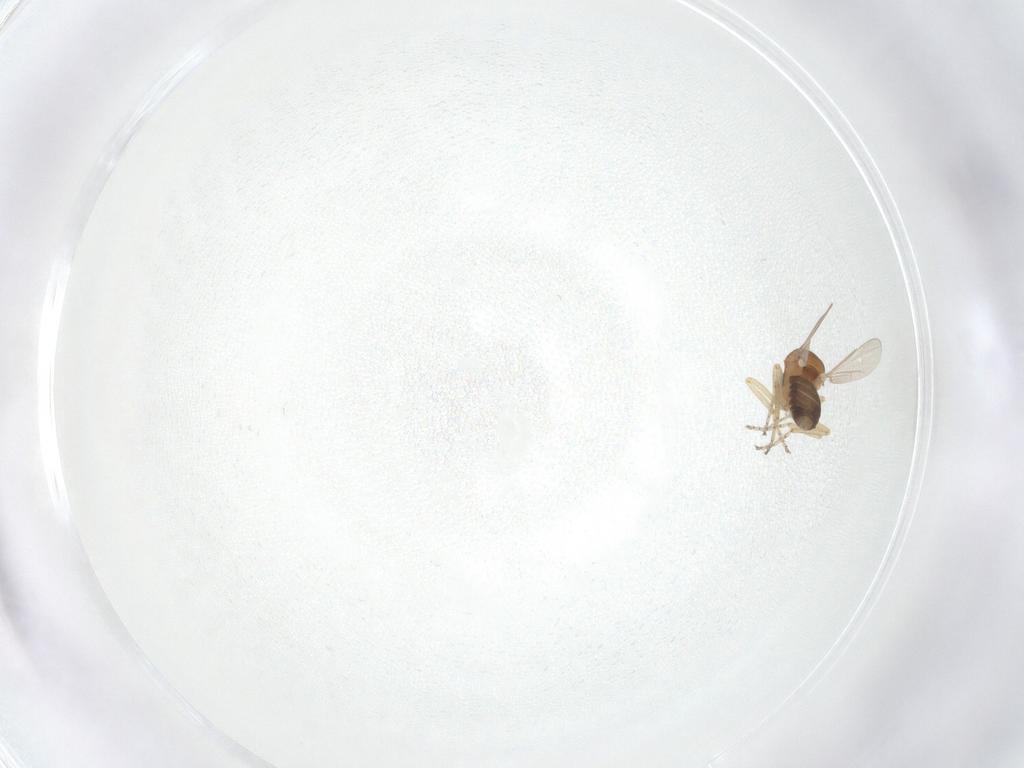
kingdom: Animalia
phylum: Arthropoda
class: Insecta
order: Diptera
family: Ceratopogonidae
